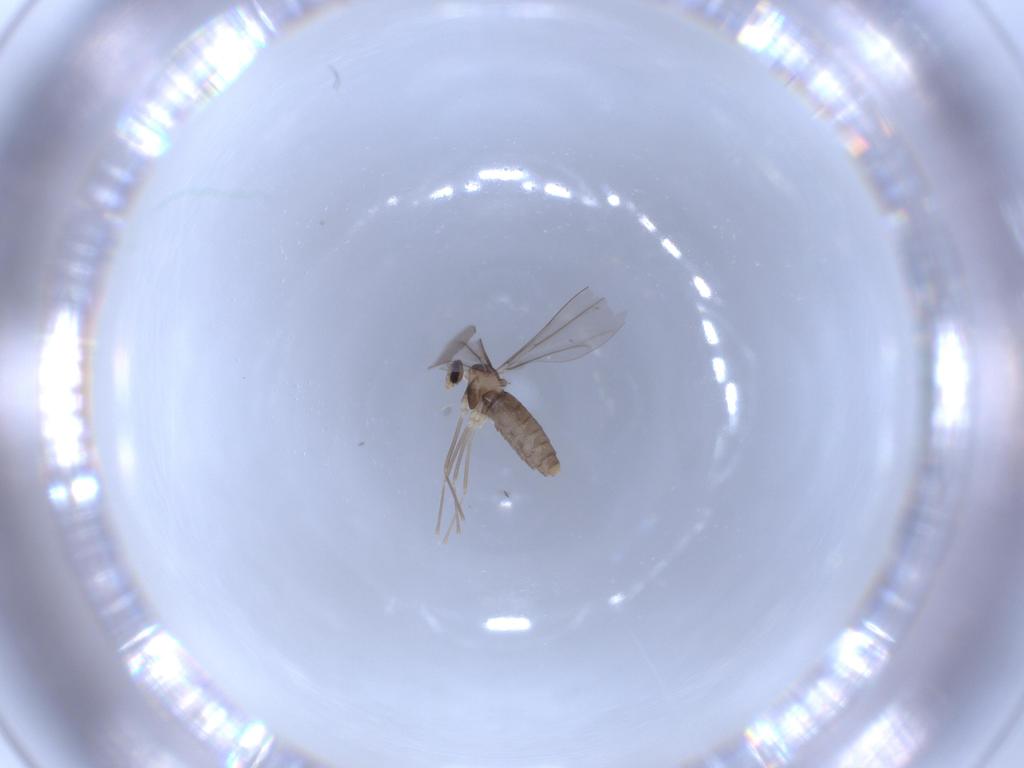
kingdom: Animalia
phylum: Arthropoda
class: Insecta
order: Diptera
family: Cecidomyiidae
